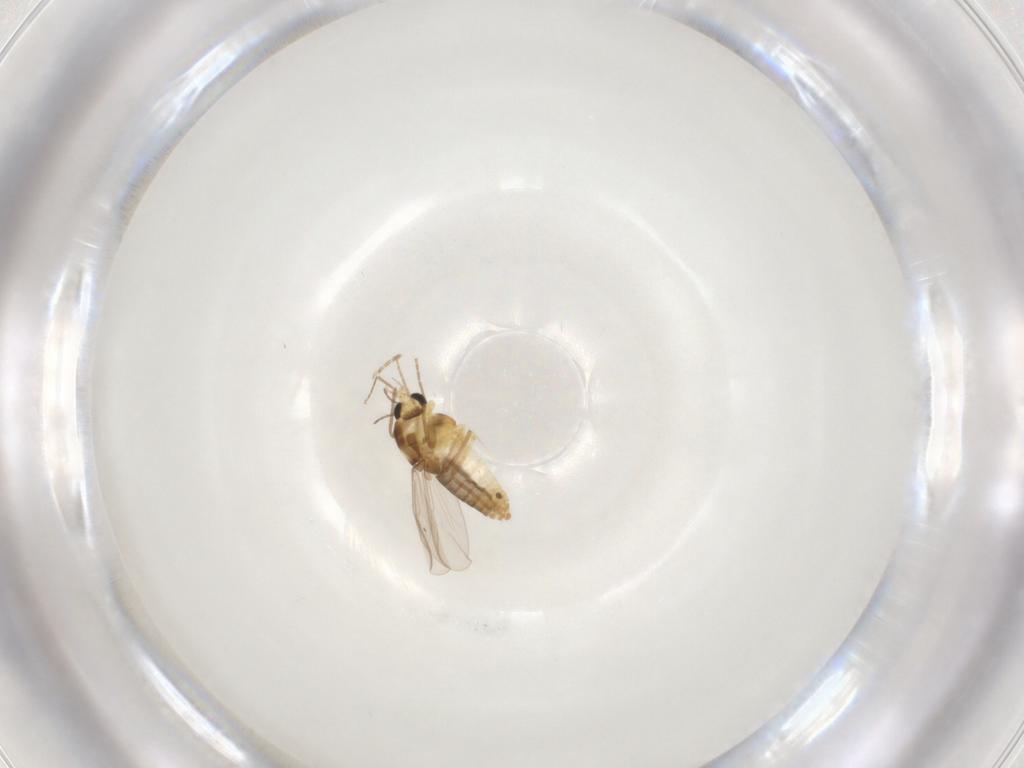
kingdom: Animalia
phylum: Arthropoda
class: Insecta
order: Diptera
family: Chironomidae
